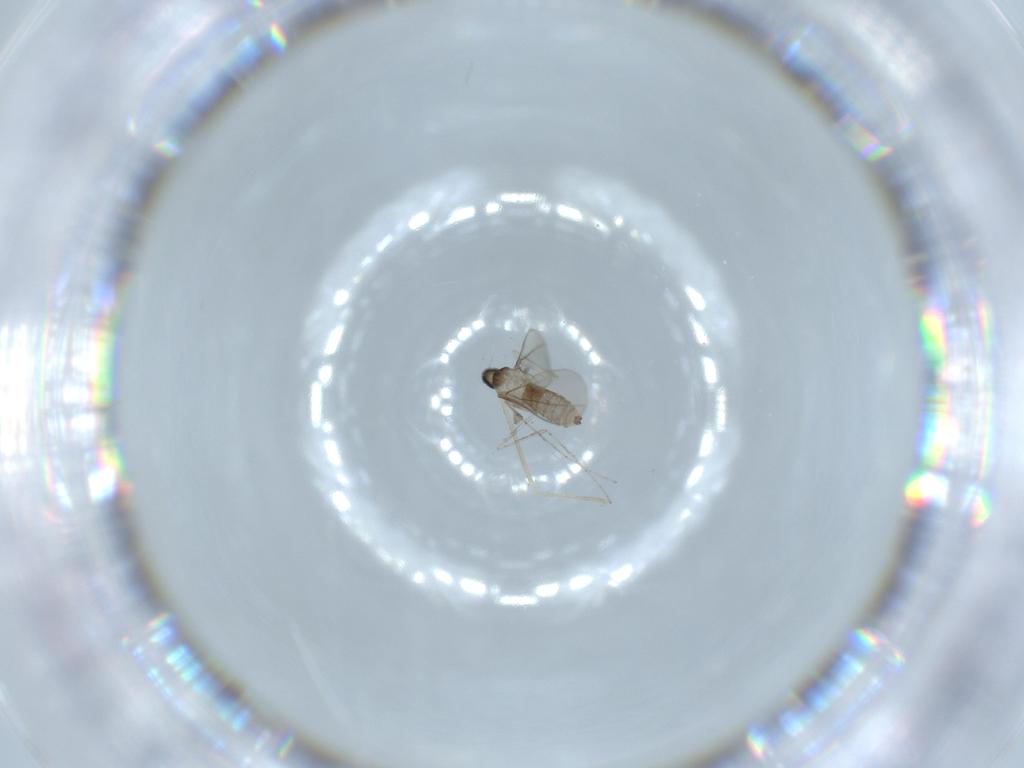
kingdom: Animalia
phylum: Arthropoda
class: Insecta
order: Diptera
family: Cecidomyiidae
